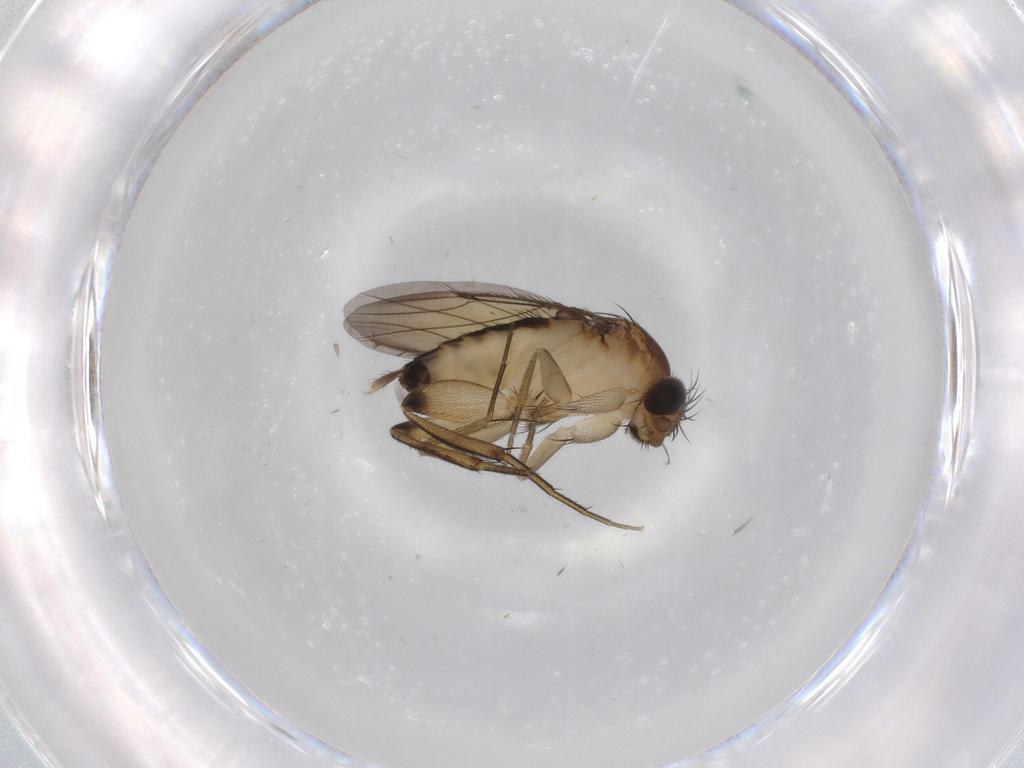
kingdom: Animalia
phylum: Arthropoda
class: Insecta
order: Diptera
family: Phoridae
